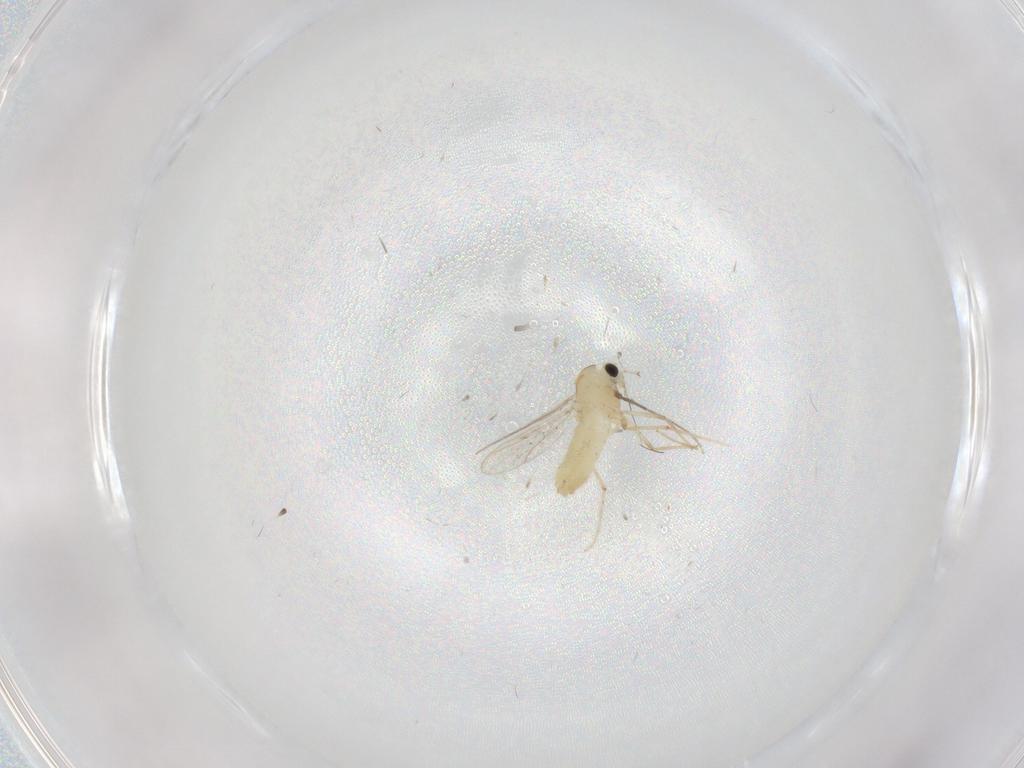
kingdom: Animalia
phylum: Arthropoda
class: Insecta
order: Diptera
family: Cecidomyiidae
